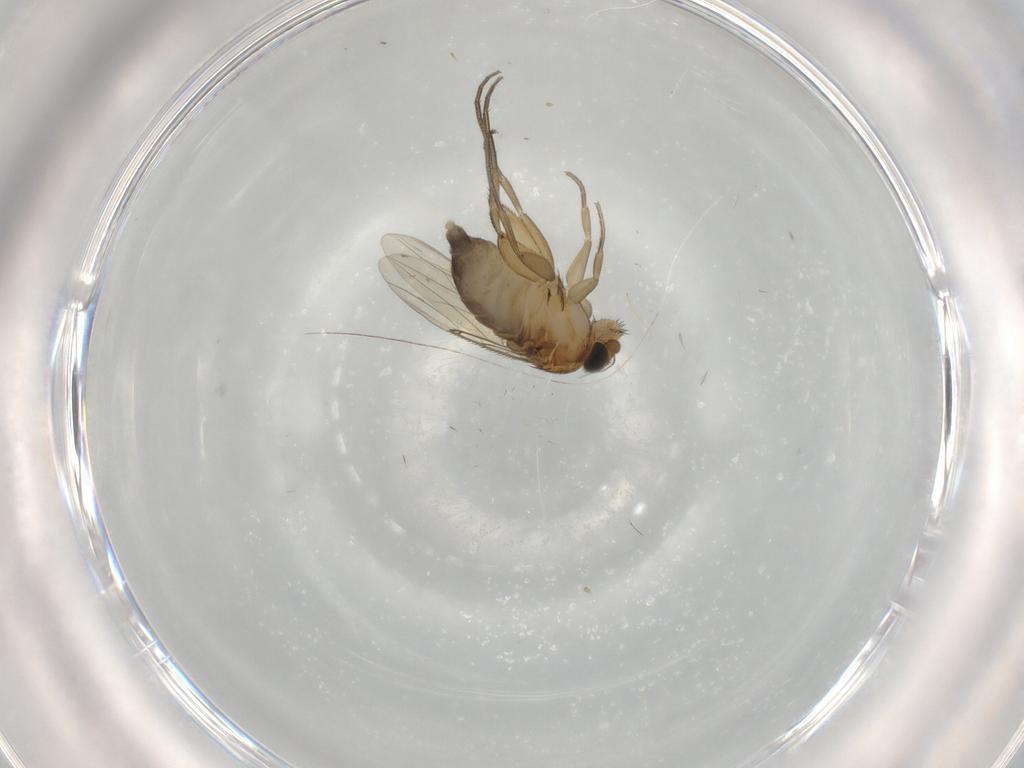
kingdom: Animalia
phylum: Arthropoda
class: Insecta
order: Diptera
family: Phoridae
